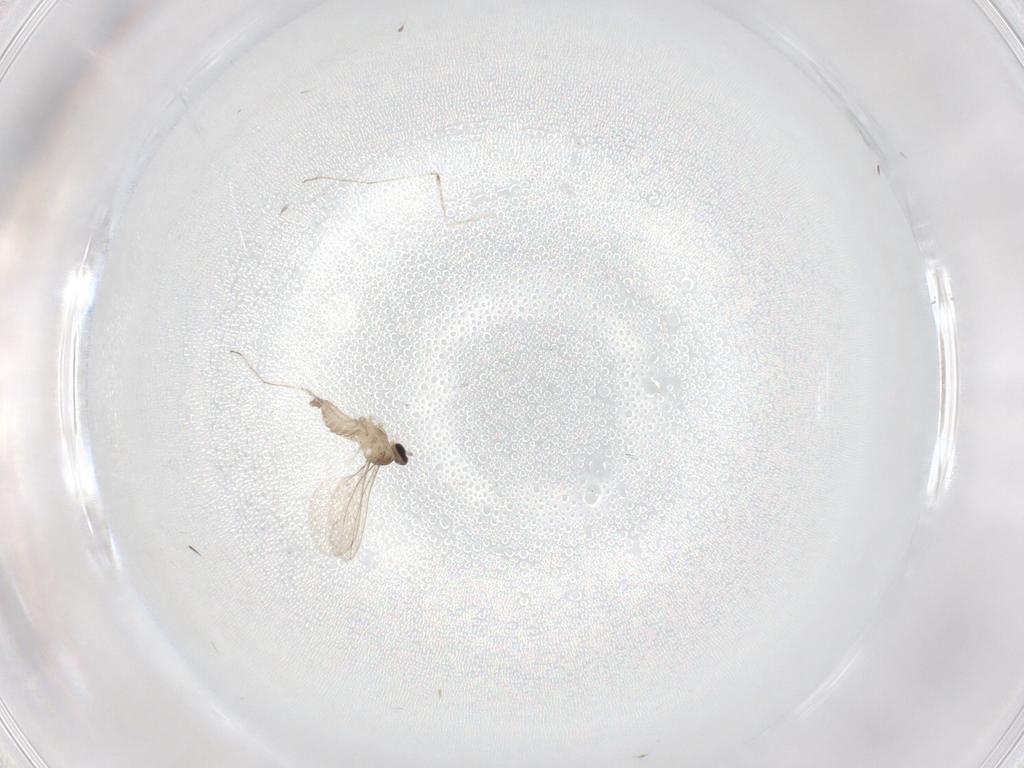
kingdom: Animalia
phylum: Arthropoda
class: Insecta
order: Diptera
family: Cecidomyiidae
